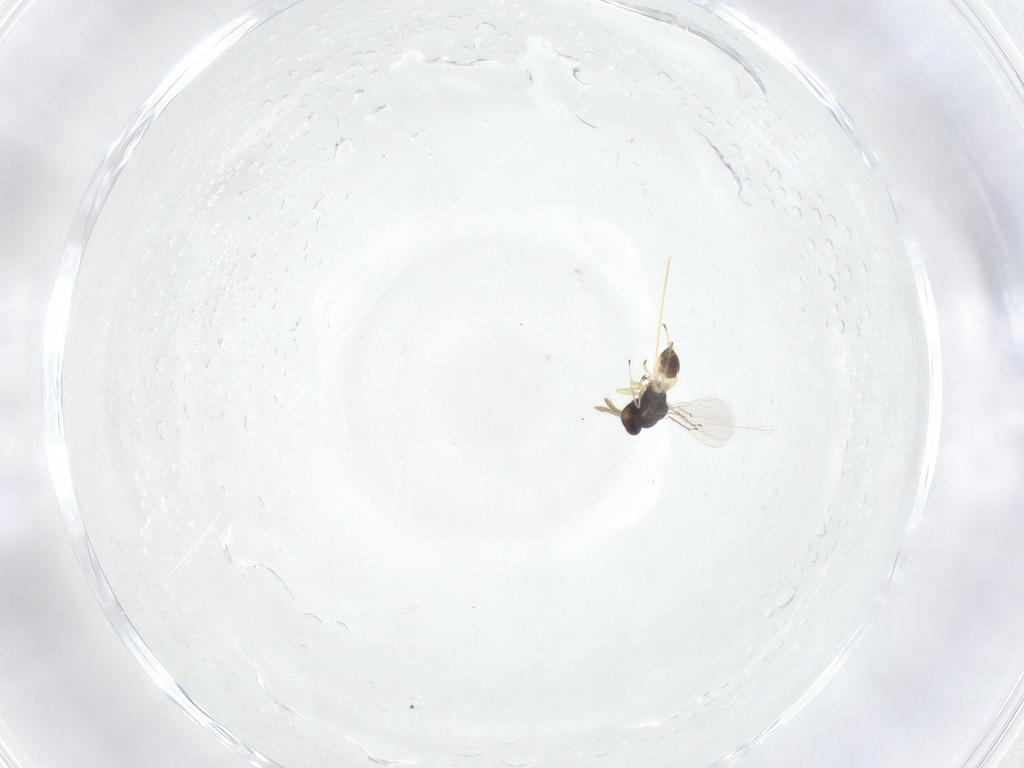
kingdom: Animalia
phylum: Arthropoda
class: Insecta
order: Hymenoptera
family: Eulophidae
